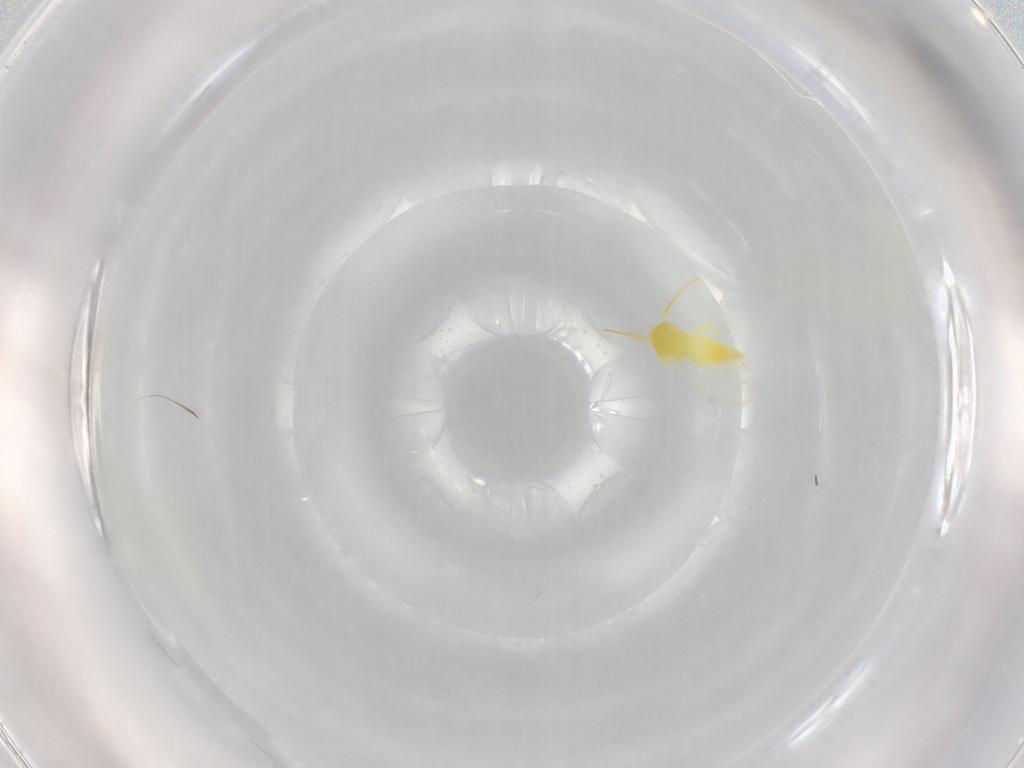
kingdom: Animalia
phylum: Arthropoda
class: Insecta
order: Hemiptera
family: Aleyrodidae
